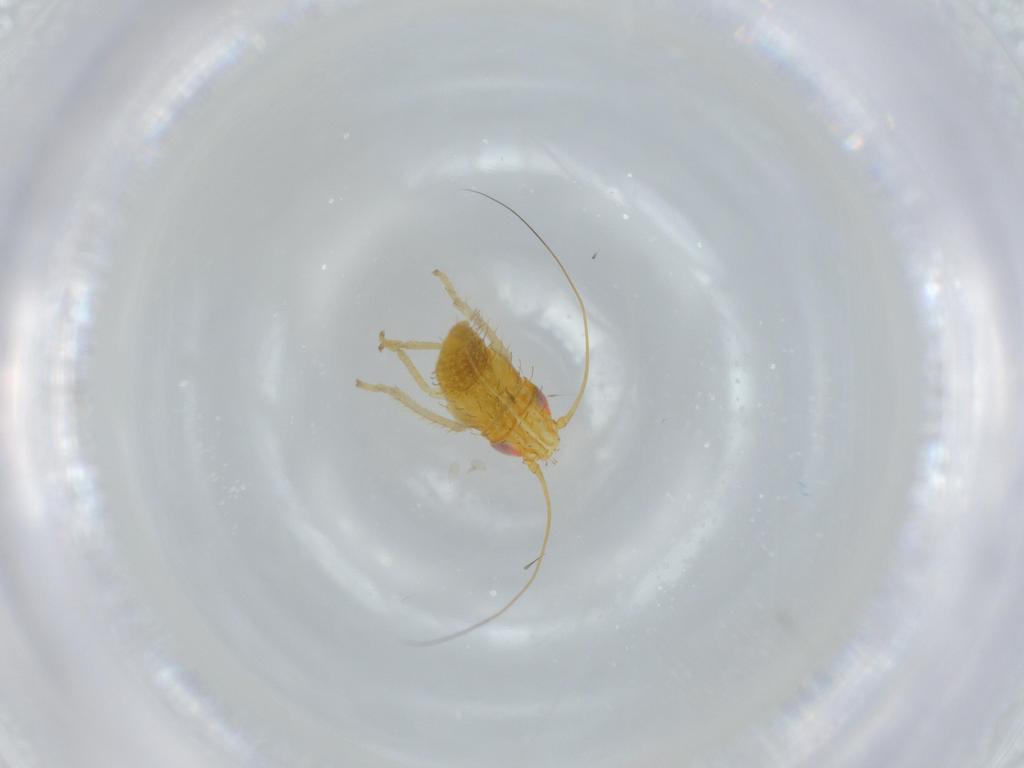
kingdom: Animalia
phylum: Arthropoda
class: Insecta
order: Hemiptera
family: Cicadellidae
